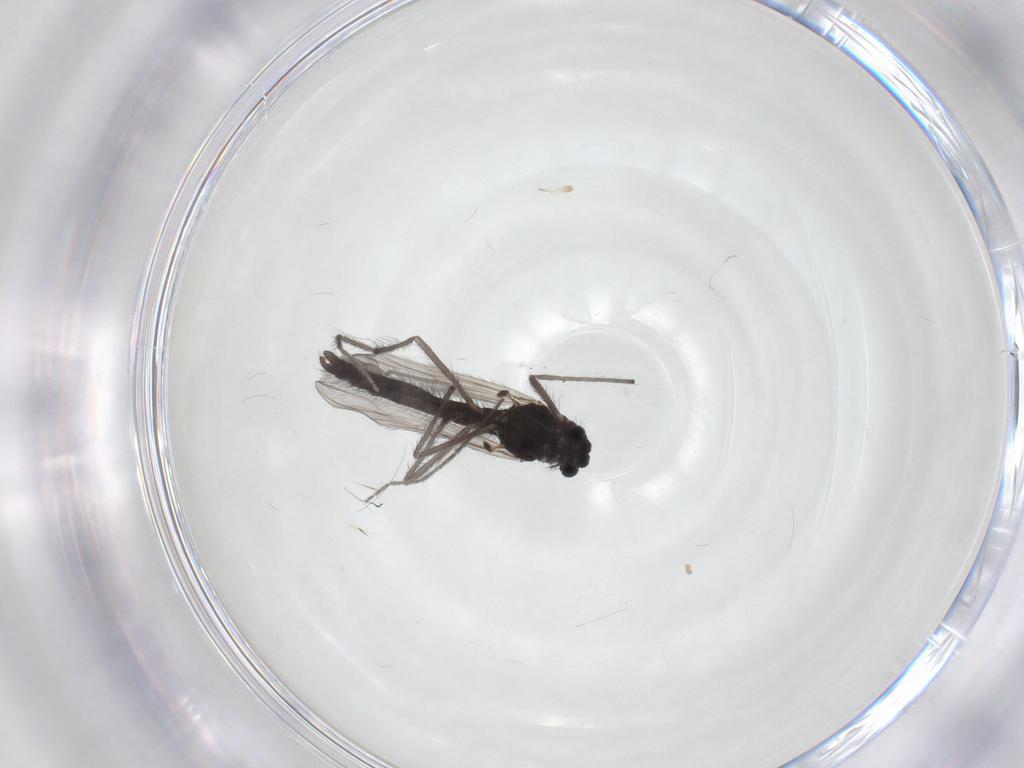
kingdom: Animalia
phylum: Arthropoda
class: Insecta
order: Diptera
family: Chironomidae
